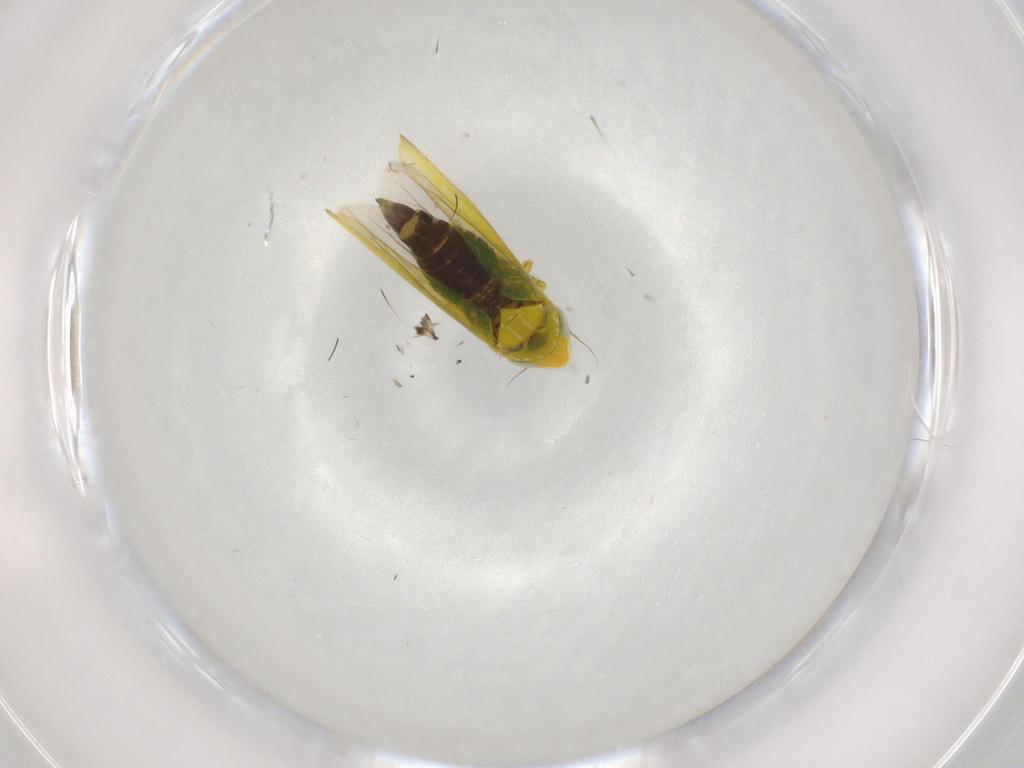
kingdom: Animalia
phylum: Arthropoda
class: Insecta
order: Hemiptera
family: Cicadellidae
